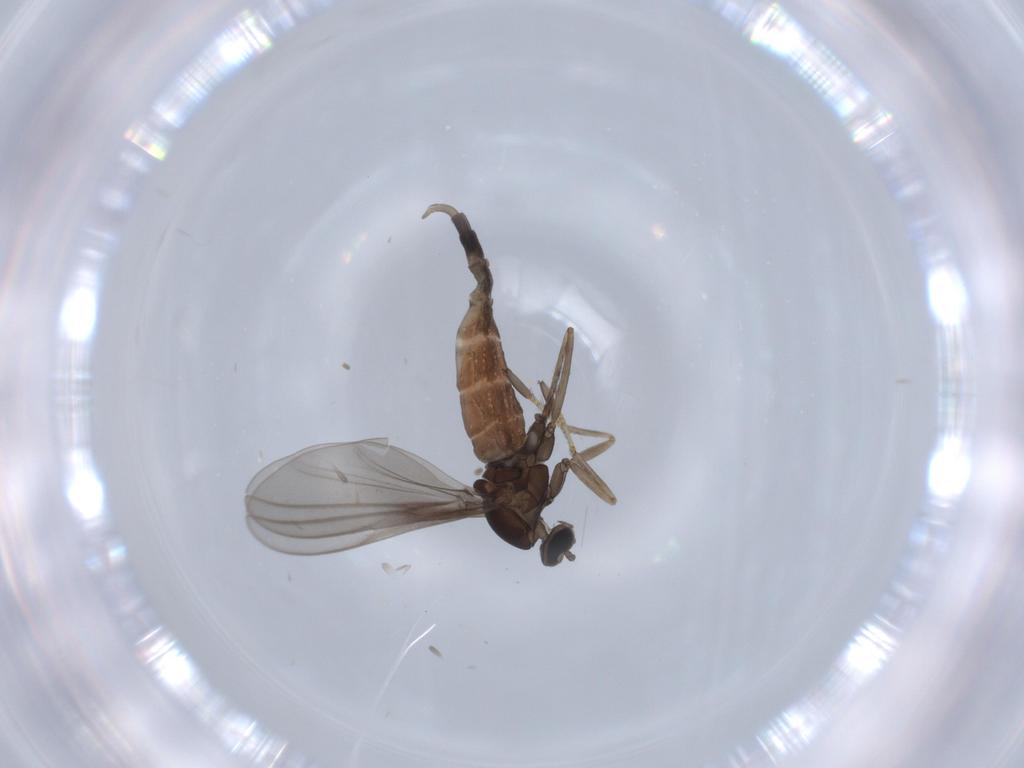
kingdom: Animalia
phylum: Arthropoda
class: Insecta
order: Diptera
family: Cecidomyiidae
